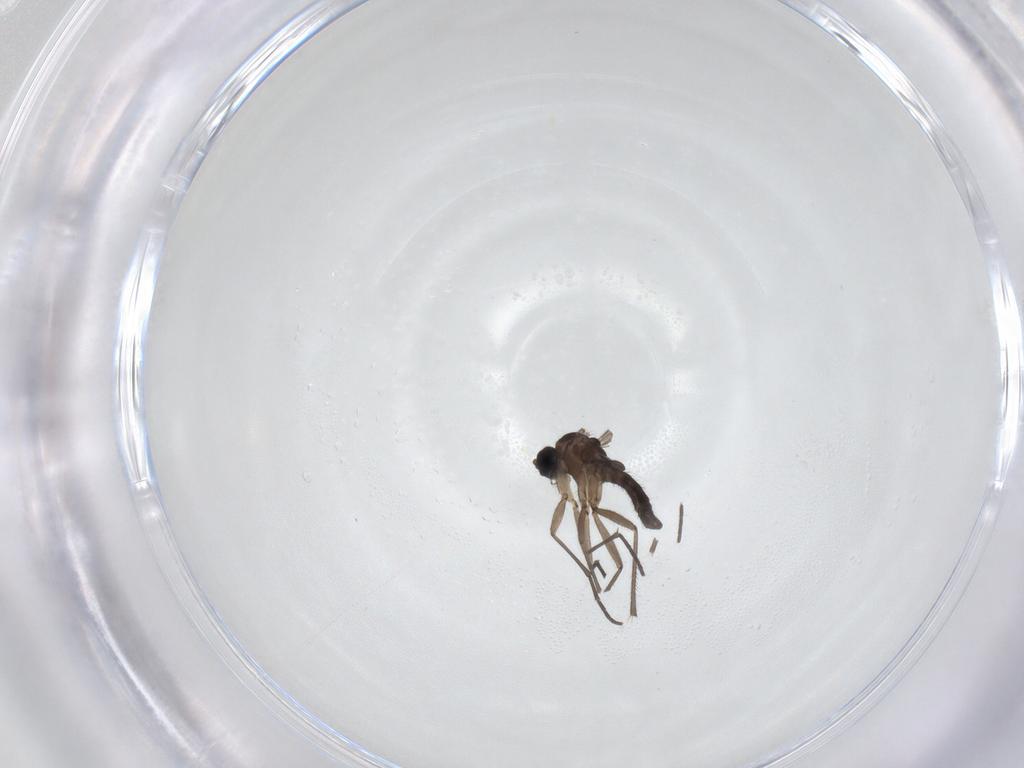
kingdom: Animalia
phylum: Arthropoda
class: Insecta
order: Diptera
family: Sciaridae
